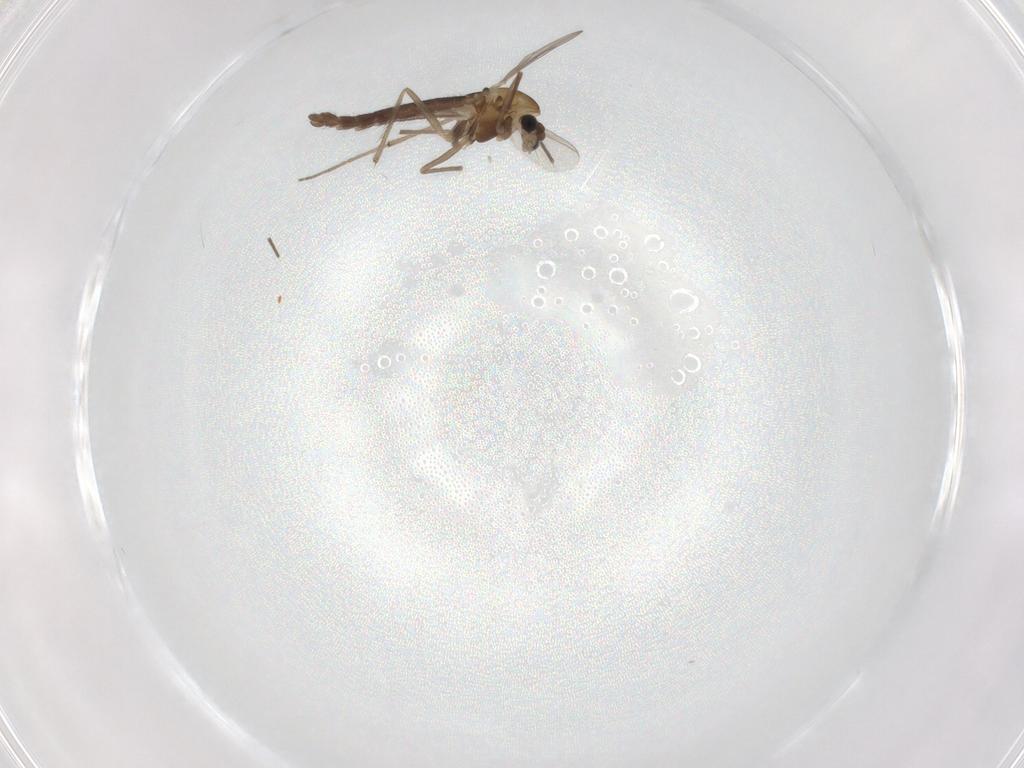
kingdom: Animalia
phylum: Arthropoda
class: Insecta
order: Diptera
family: Chironomidae
